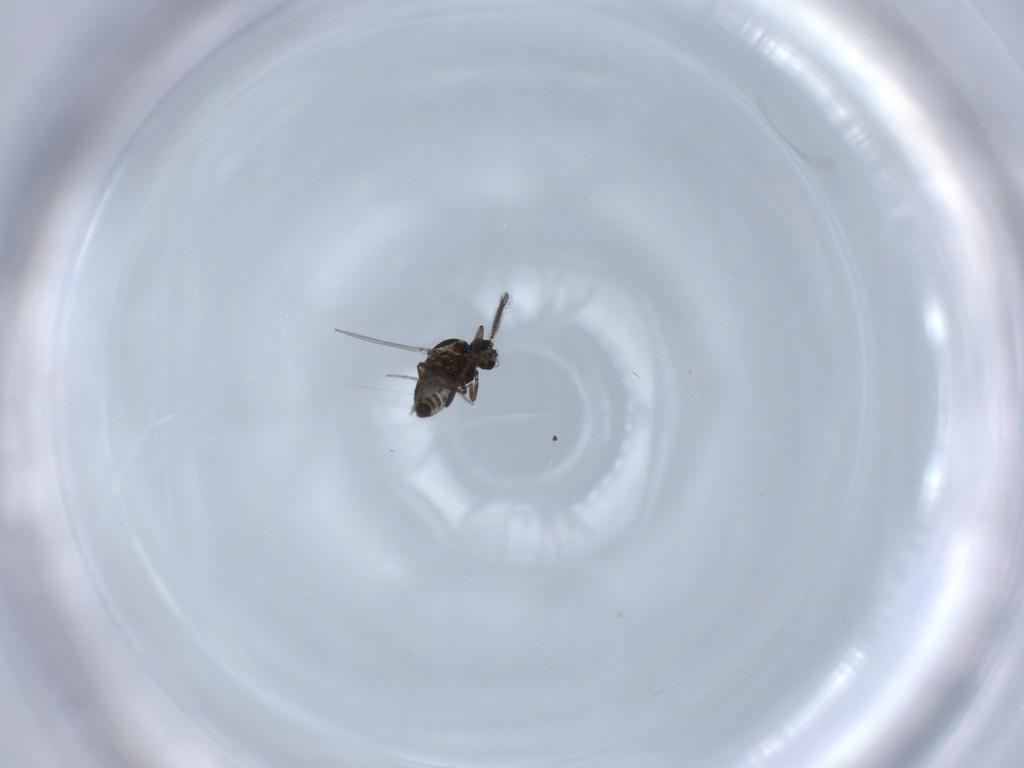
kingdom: Animalia
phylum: Arthropoda
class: Insecta
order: Diptera
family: Ceratopogonidae
